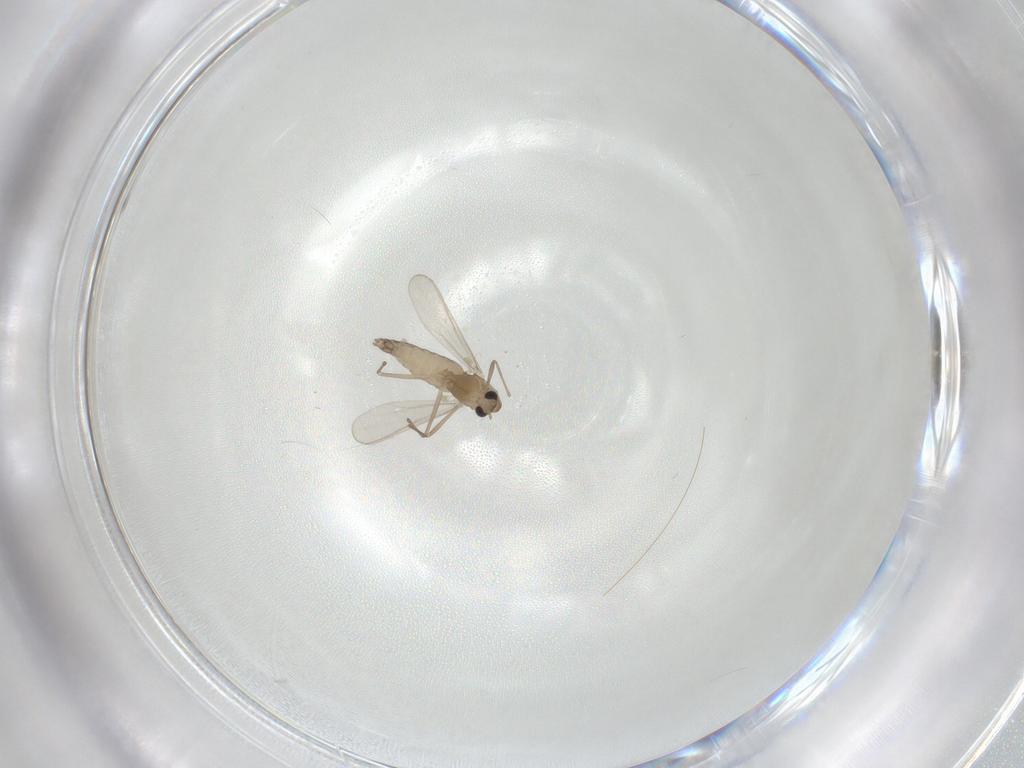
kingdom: Animalia
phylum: Arthropoda
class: Insecta
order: Diptera
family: Chironomidae
